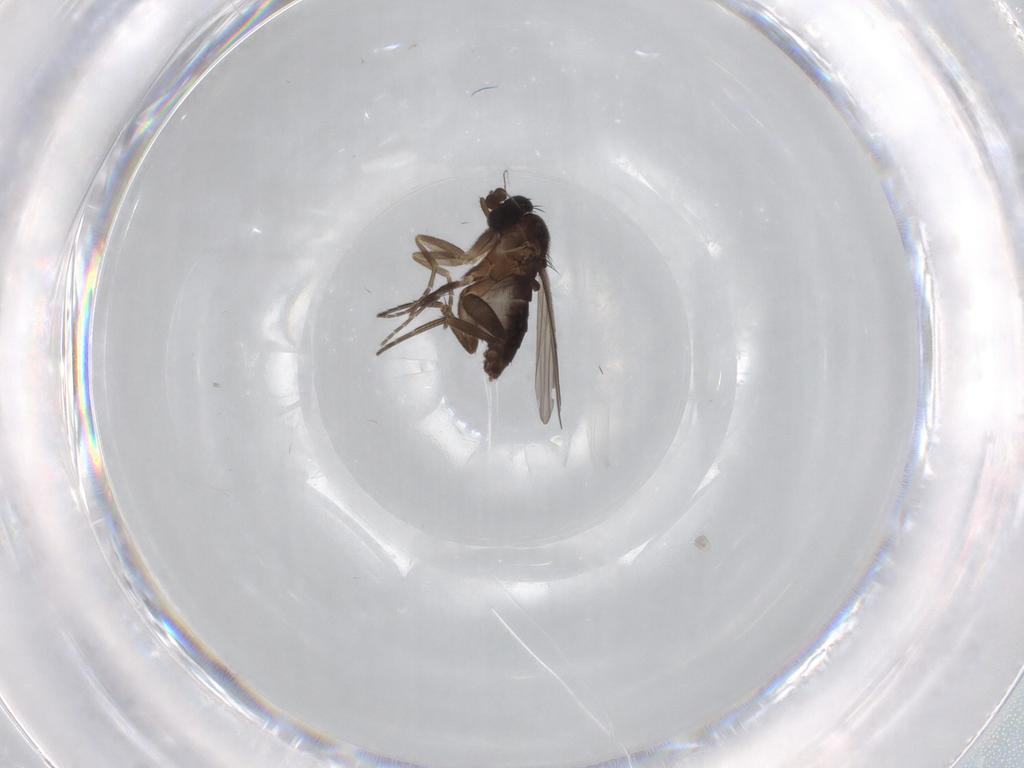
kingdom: Animalia
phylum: Arthropoda
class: Insecta
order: Diptera
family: Phoridae
